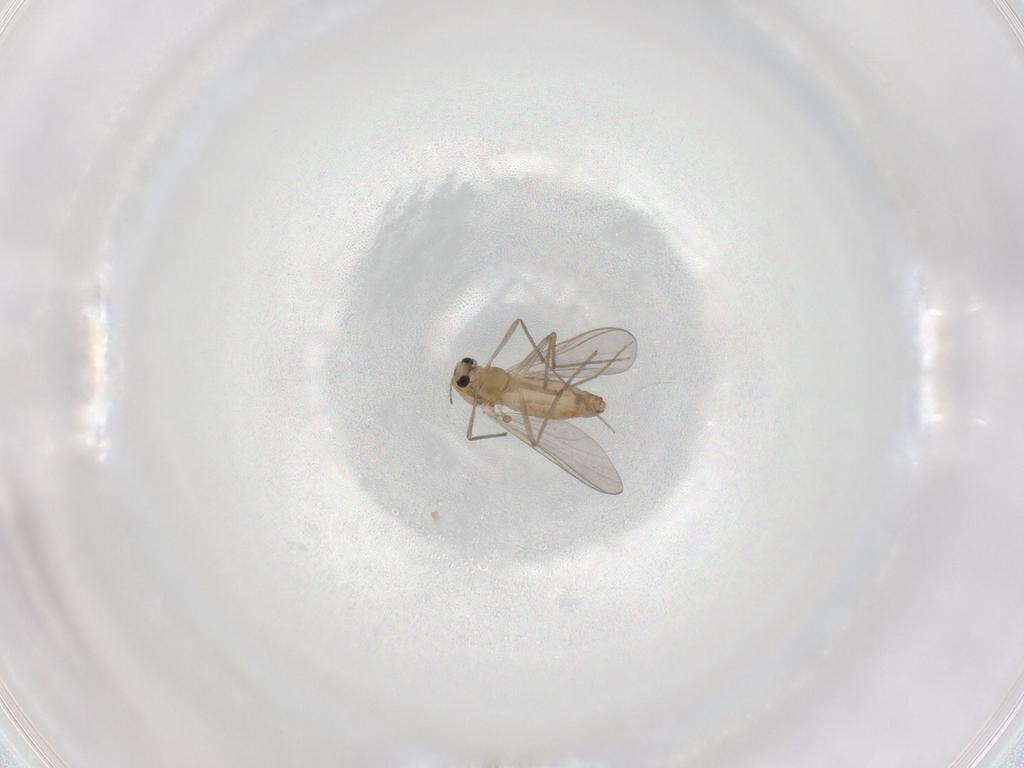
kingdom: Animalia
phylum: Arthropoda
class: Insecta
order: Diptera
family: Chironomidae
